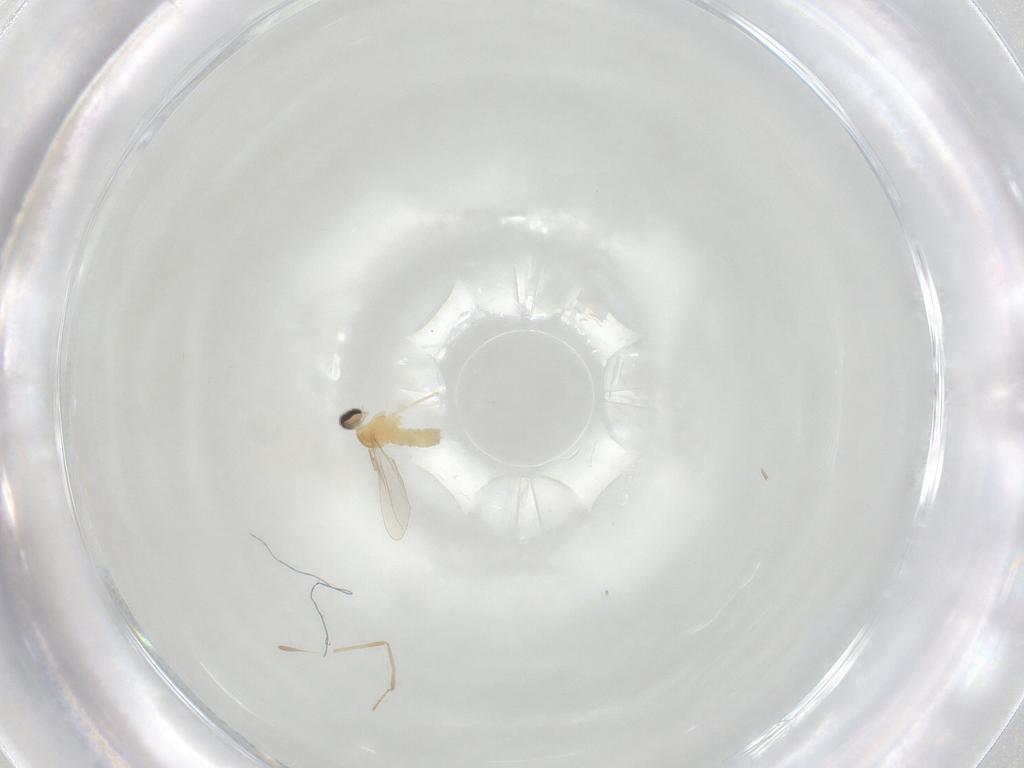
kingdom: Animalia
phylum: Arthropoda
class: Insecta
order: Diptera
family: Cecidomyiidae
